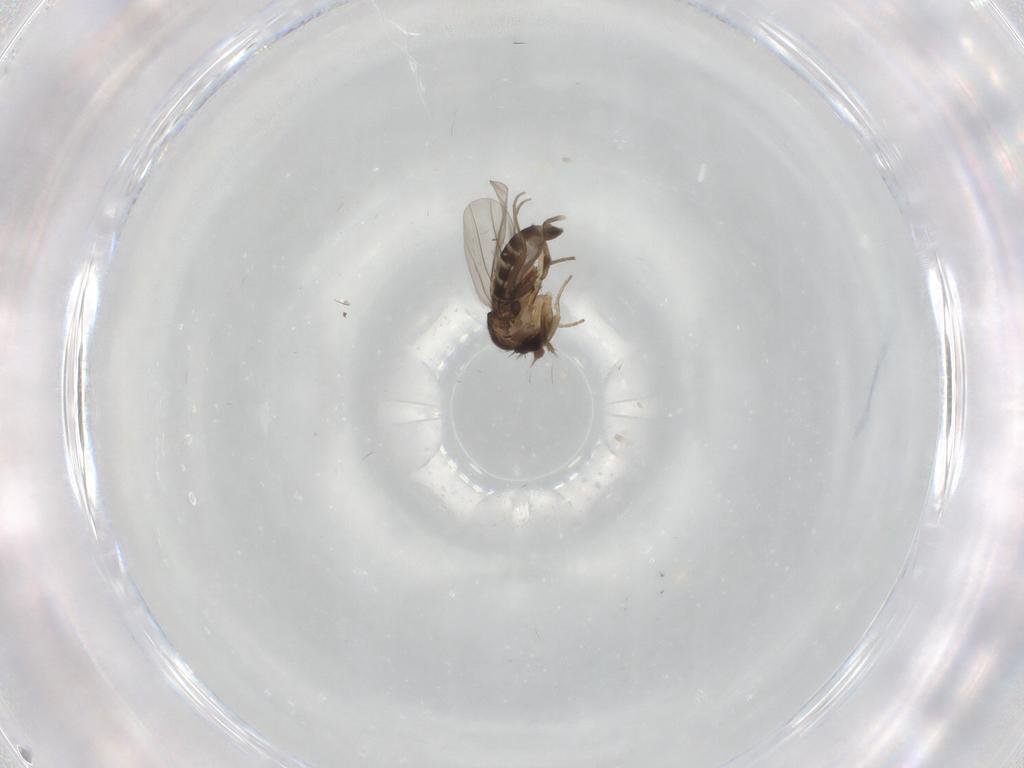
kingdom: Animalia
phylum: Arthropoda
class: Insecta
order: Diptera
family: Phoridae
